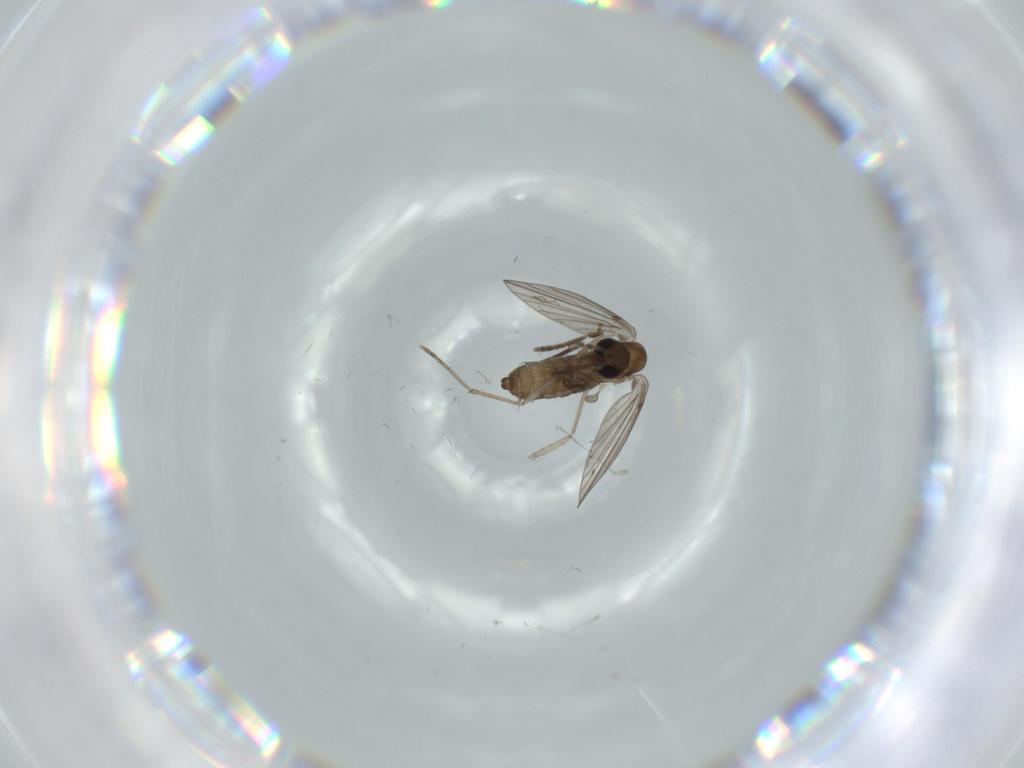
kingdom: Animalia
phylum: Arthropoda
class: Insecta
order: Diptera
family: Psychodidae
